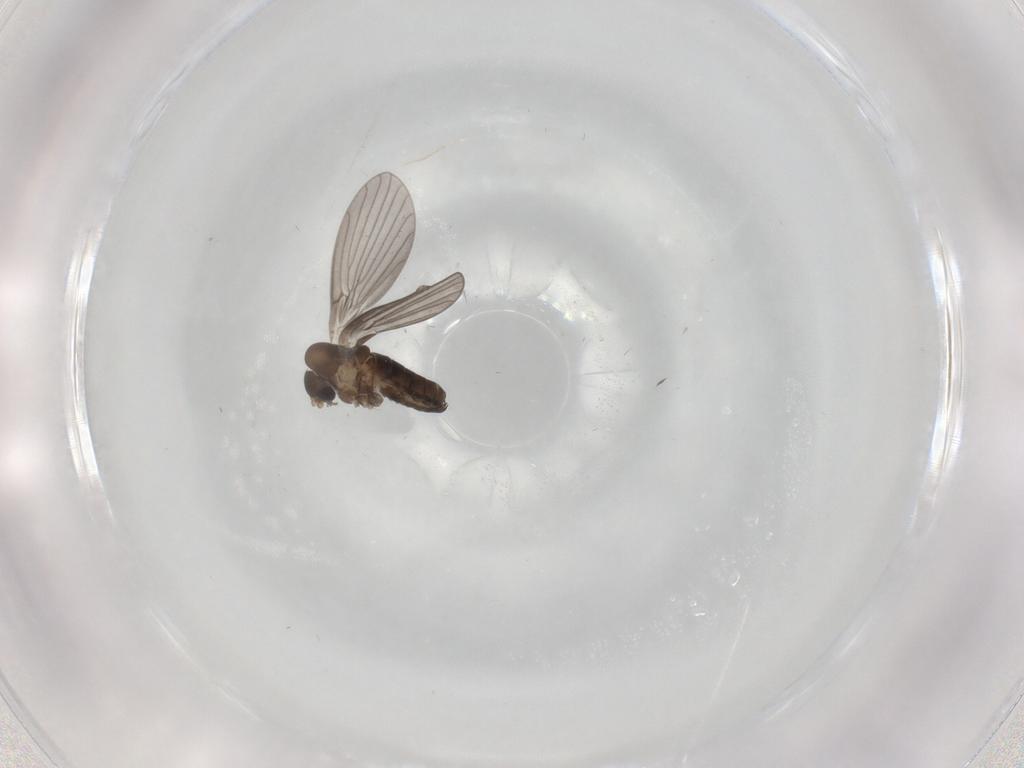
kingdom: Animalia
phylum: Arthropoda
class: Insecta
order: Diptera
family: Psychodidae
